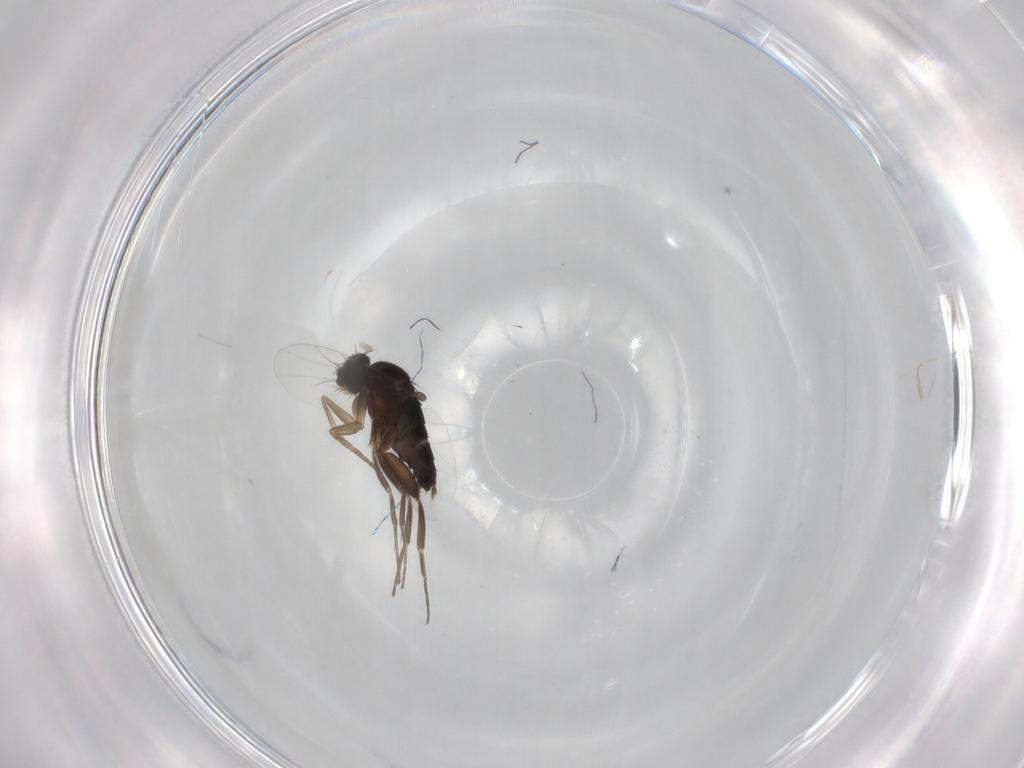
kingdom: Animalia
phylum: Arthropoda
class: Insecta
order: Diptera
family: Phoridae
